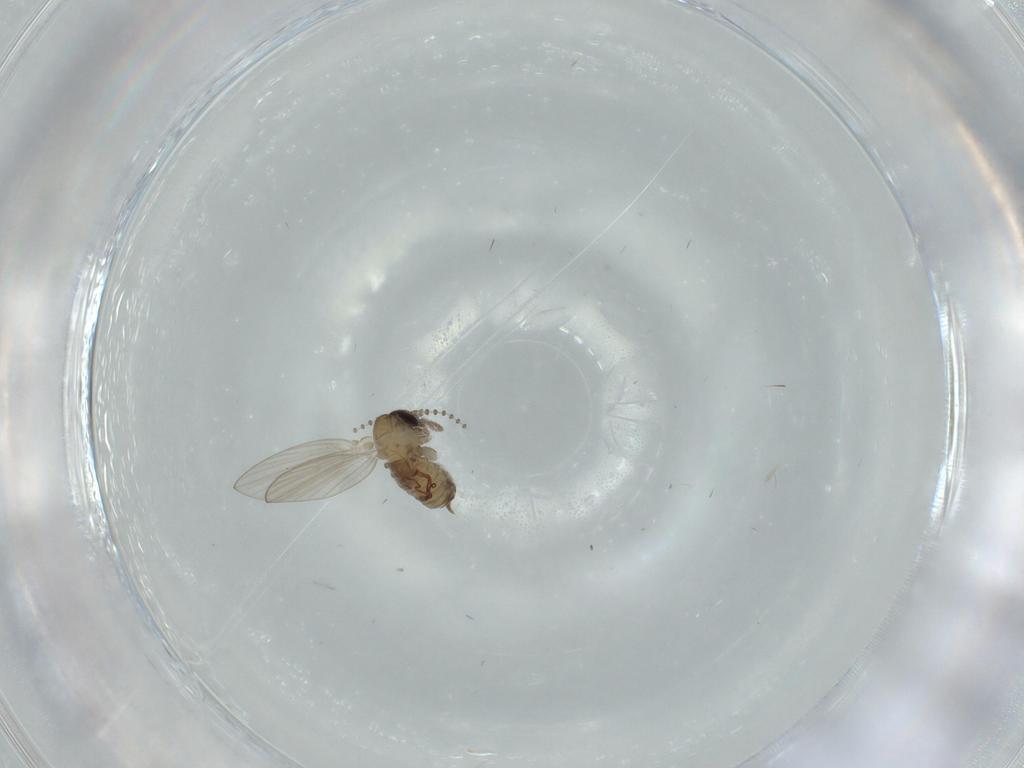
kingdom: Animalia
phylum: Arthropoda
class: Insecta
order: Diptera
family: Psychodidae
